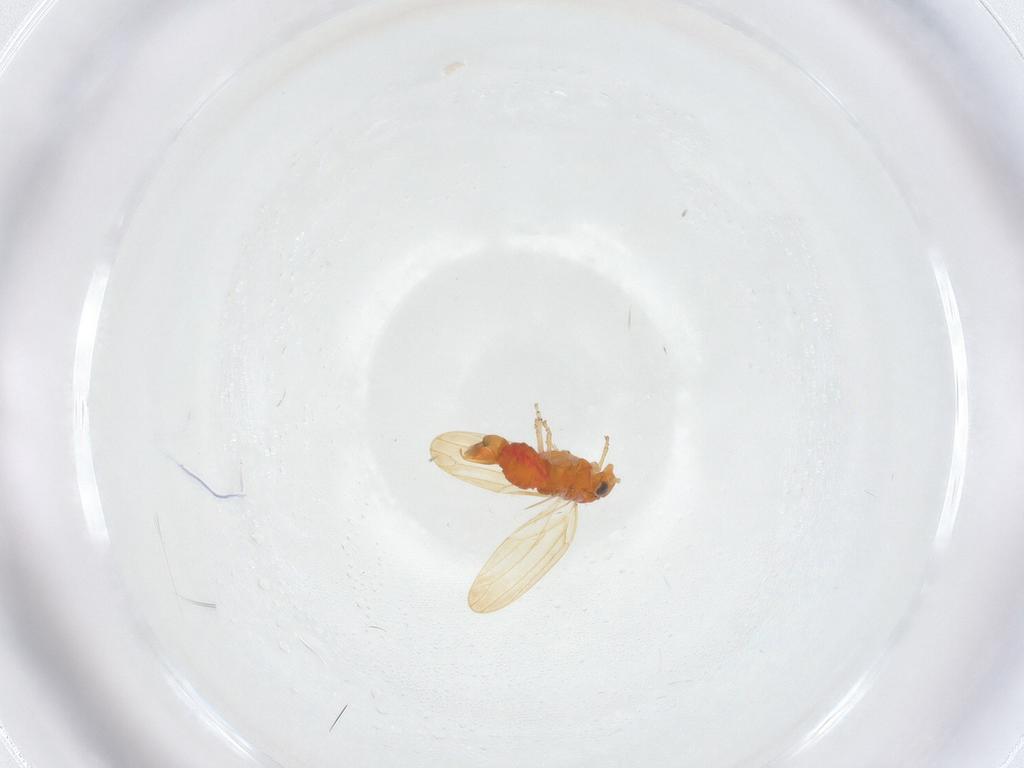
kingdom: Animalia
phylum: Arthropoda
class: Insecta
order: Hemiptera
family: Aphalaridae
